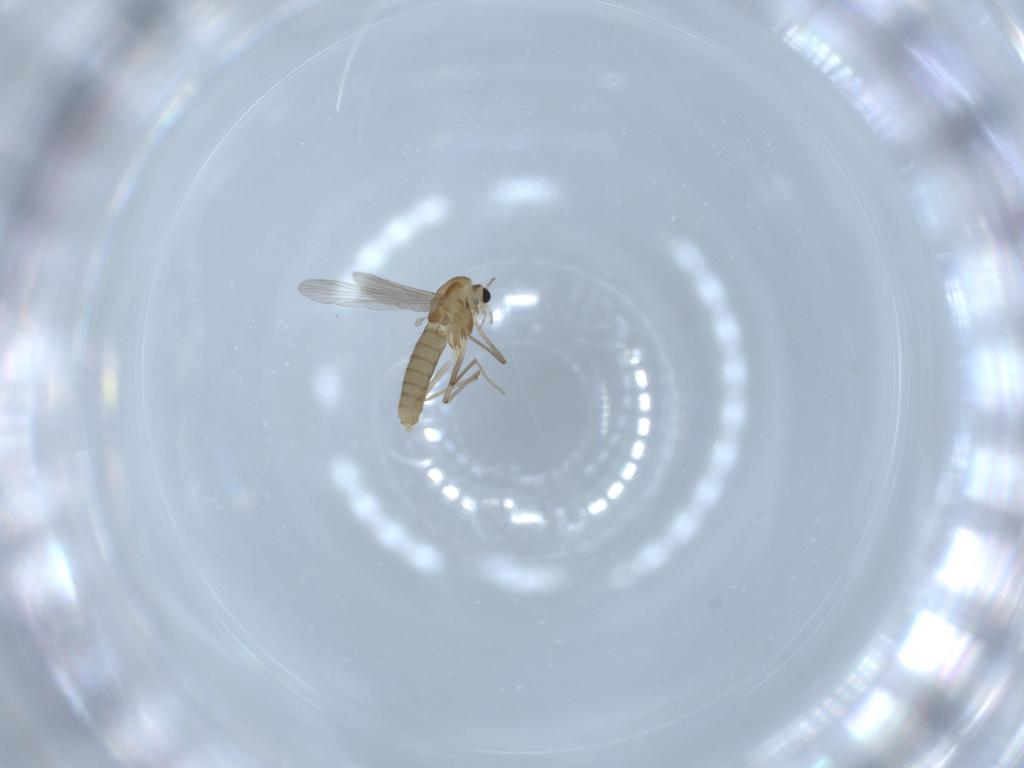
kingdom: Animalia
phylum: Arthropoda
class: Insecta
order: Diptera
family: Chironomidae
